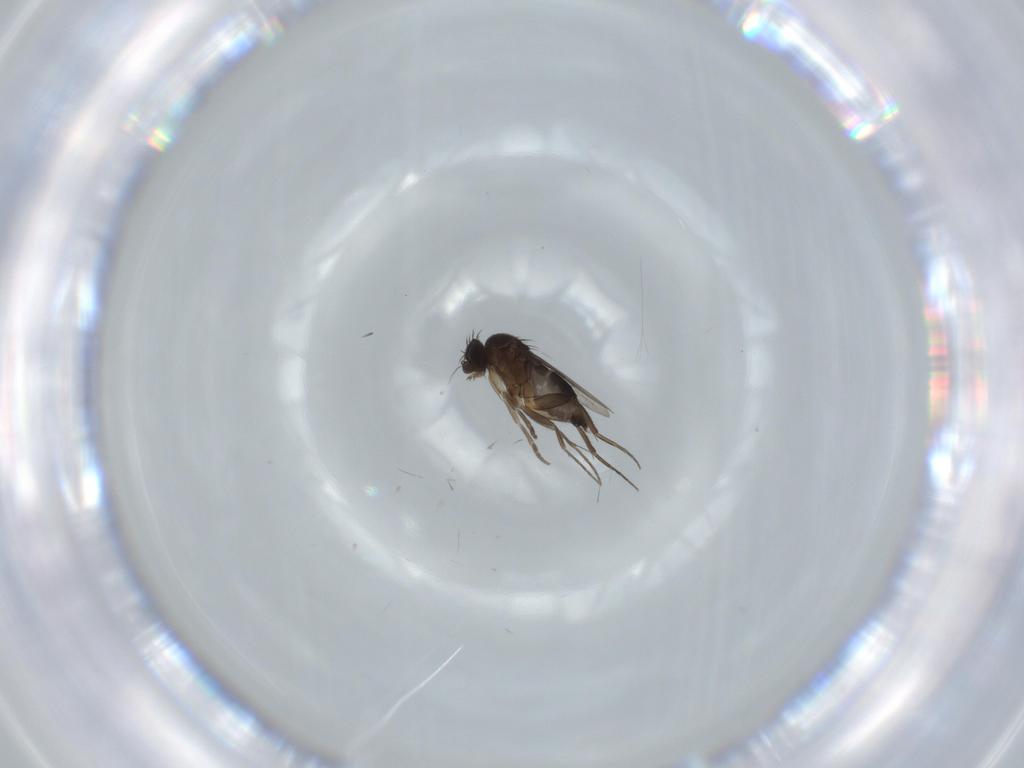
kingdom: Animalia
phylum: Arthropoda
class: Insecta
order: Diptera
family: Phoridae
